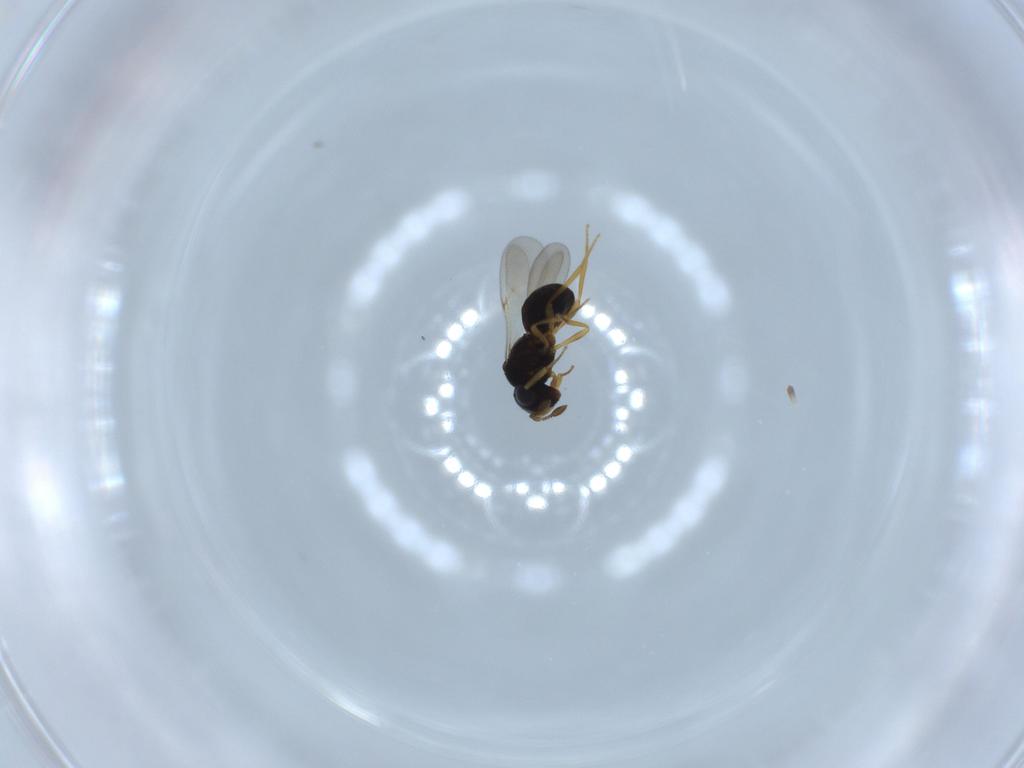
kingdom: Animalia
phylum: Arthropoda
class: Insecta
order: Hymenoptera
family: Scelionidae
